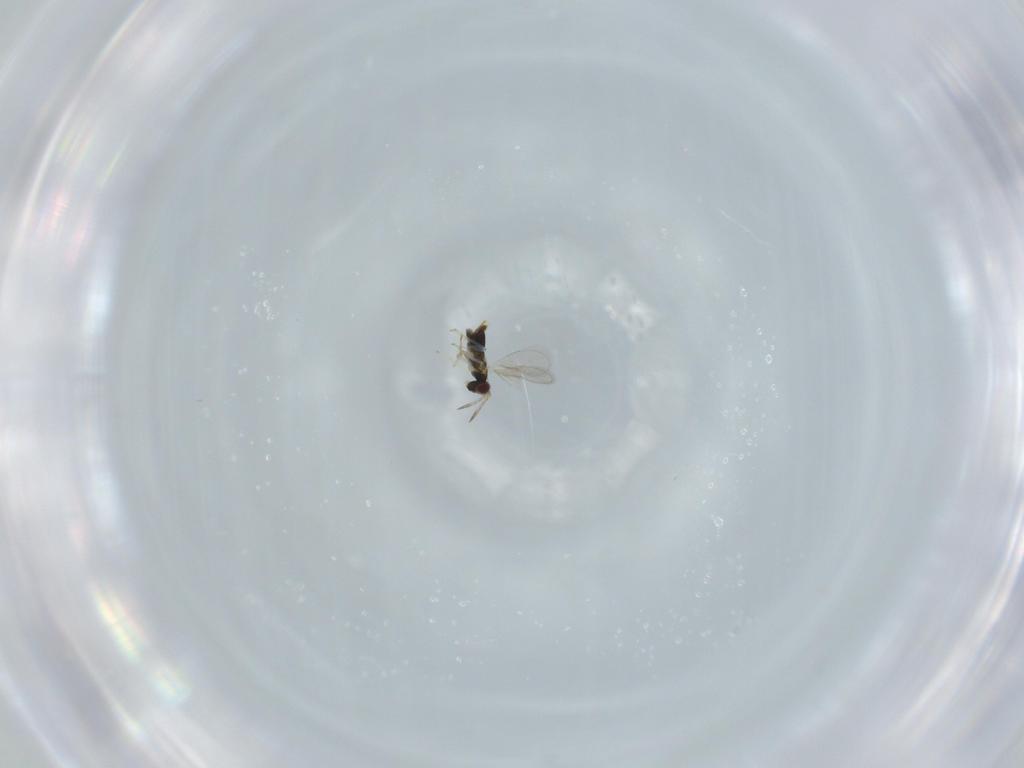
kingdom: Animalia
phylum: Arthropoda
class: Insecta
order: Hymenoptera
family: Aphelinidae
